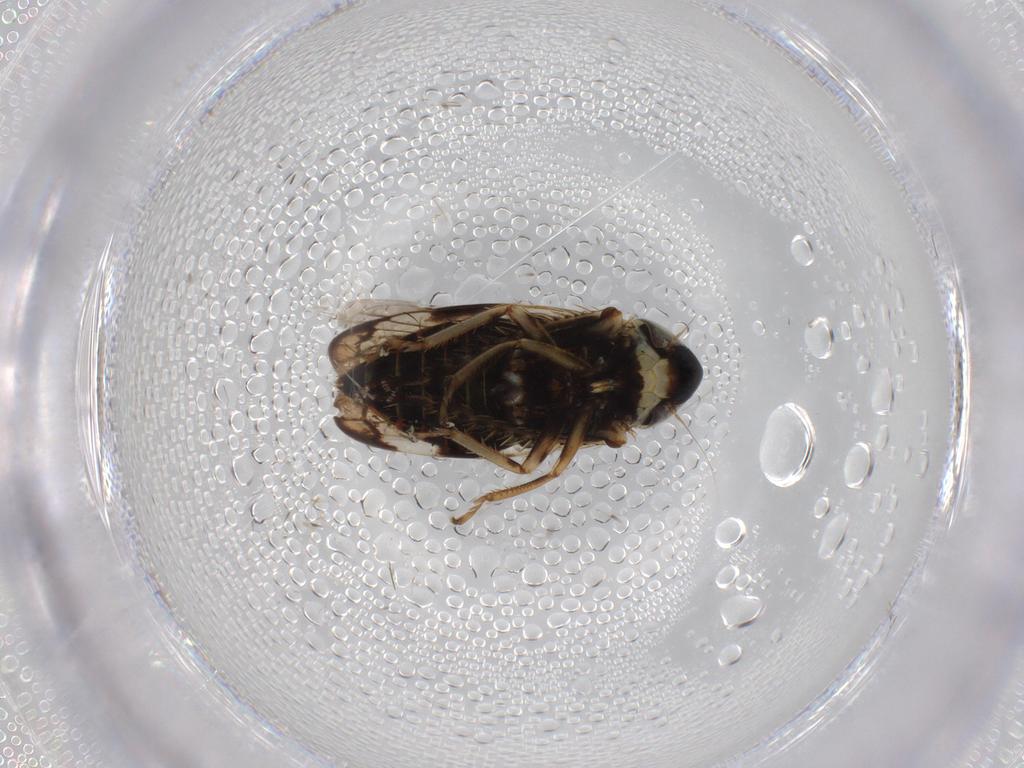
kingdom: Animalia
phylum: Arthropoda
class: Insecta
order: Hemiptera
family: Cicadellidae
